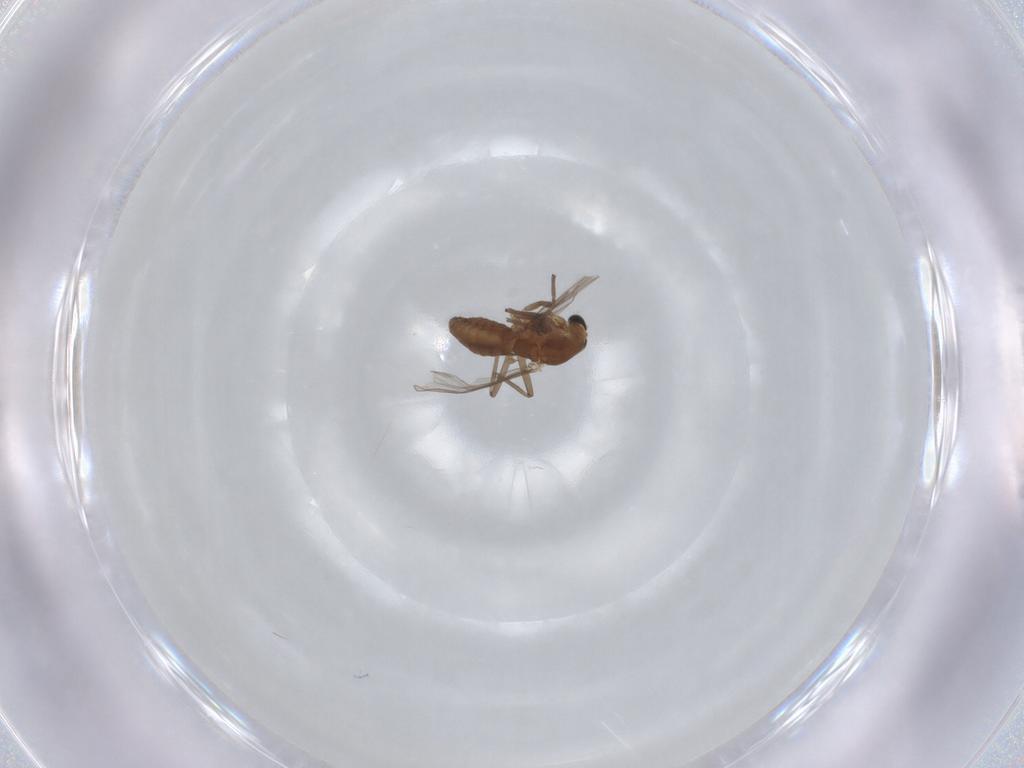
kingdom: Animalia
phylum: Arthropoda
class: Insecta
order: Diptera
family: Chironomidae
